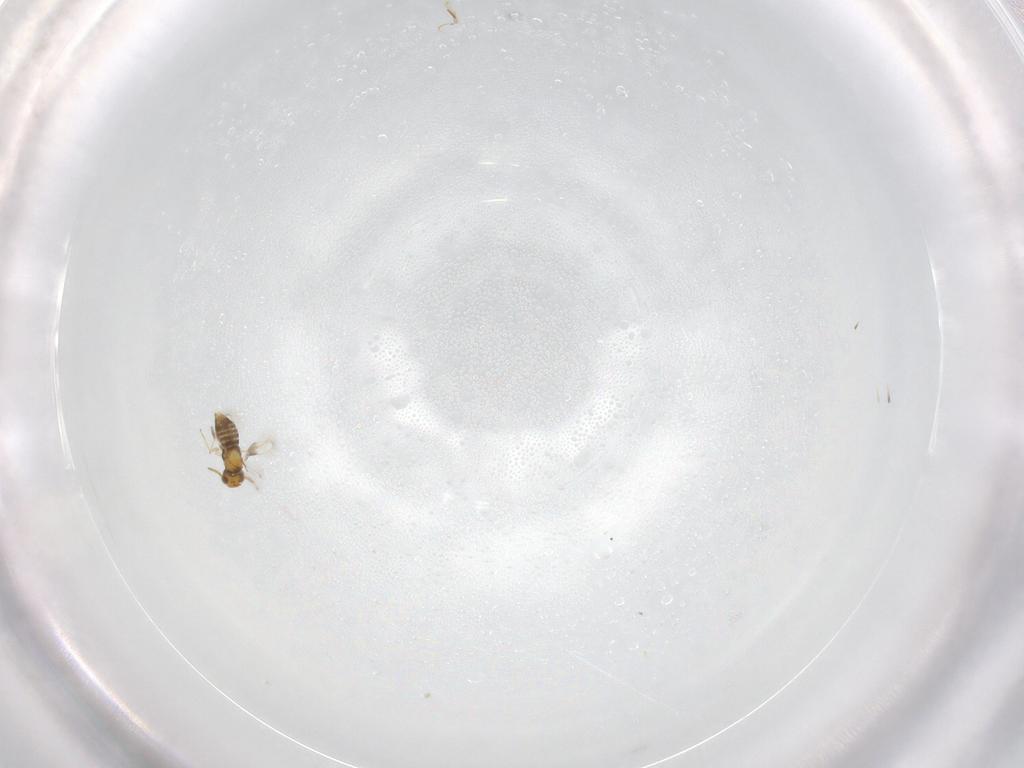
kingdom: Animalia
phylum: Arthropoda
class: Insecta
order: Hymenoptera
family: Aphelinidae
